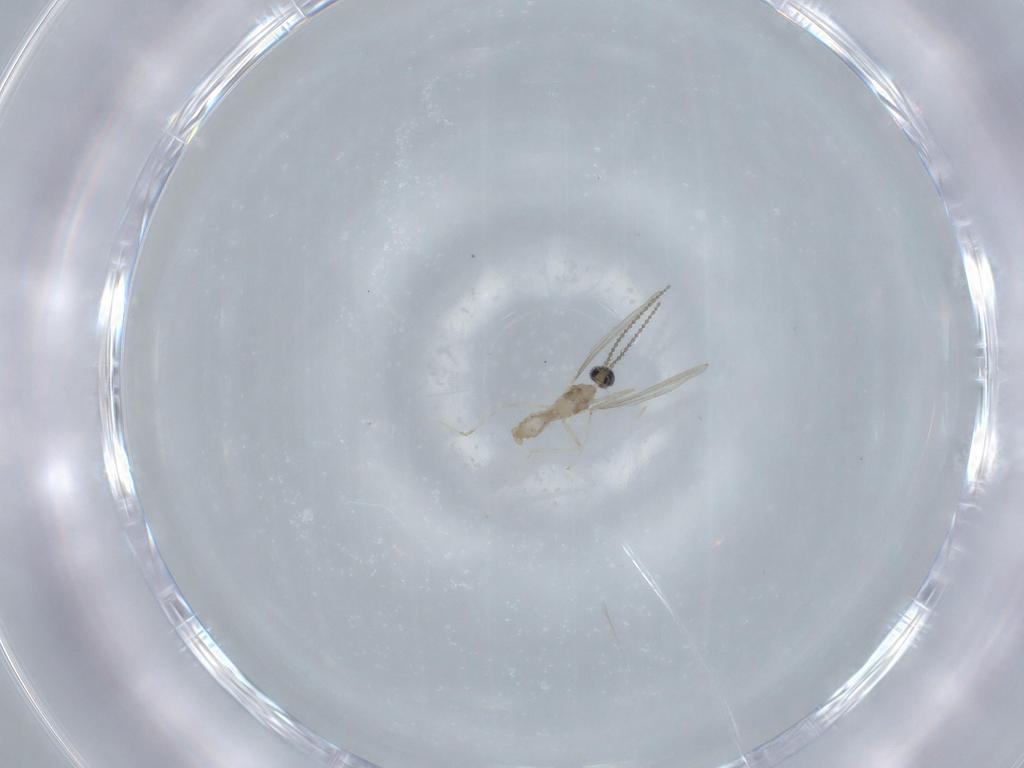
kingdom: Animalia
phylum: Arthropoda
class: Insecta
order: Diptera
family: Cecidomyiidae
